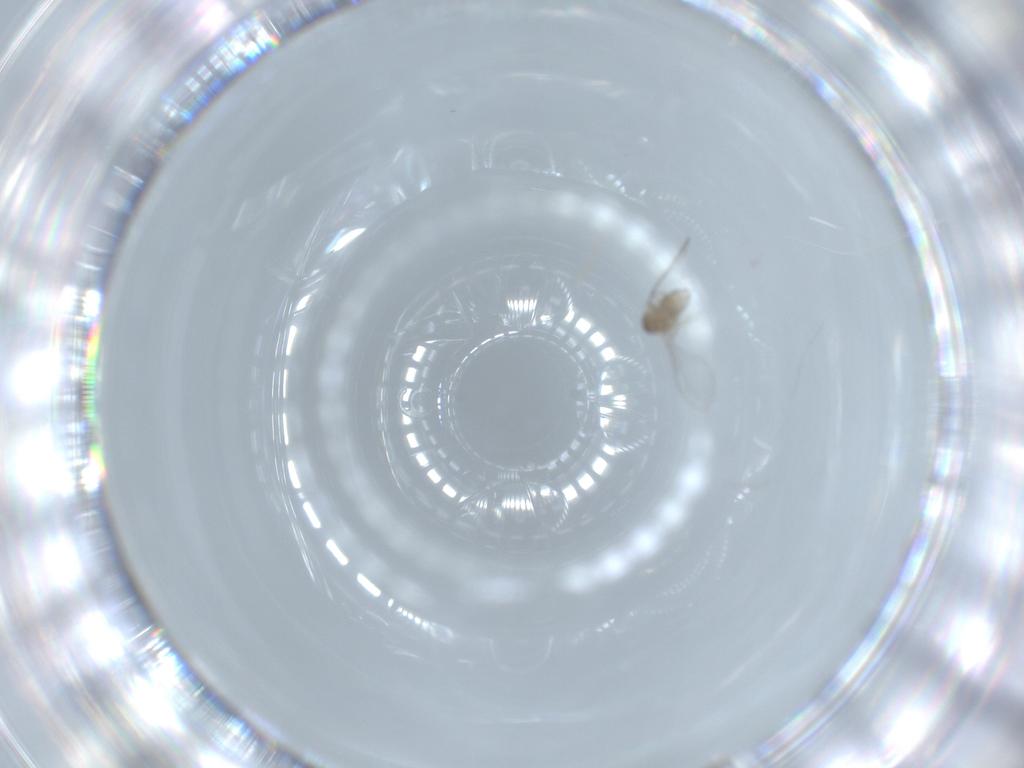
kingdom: Animalia
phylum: Arthropoda
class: Insecta
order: Diptera
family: Cecidomyiidae
